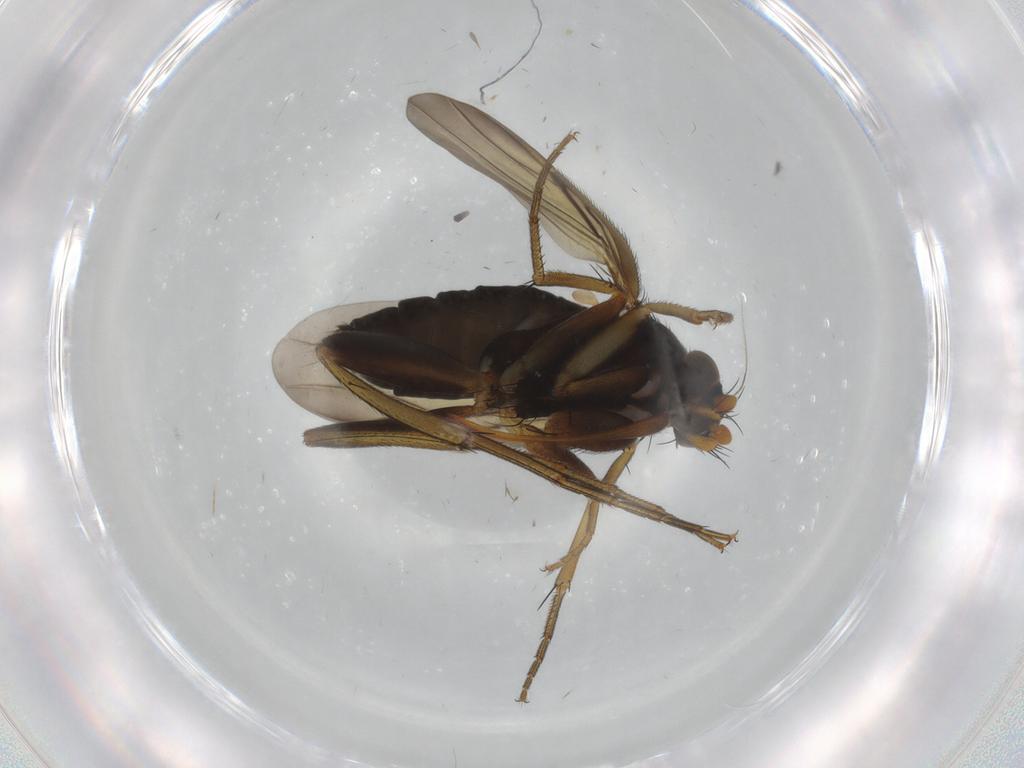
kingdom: Animalia
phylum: Arthropoda
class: Insecta
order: Diptera
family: Phoridae
